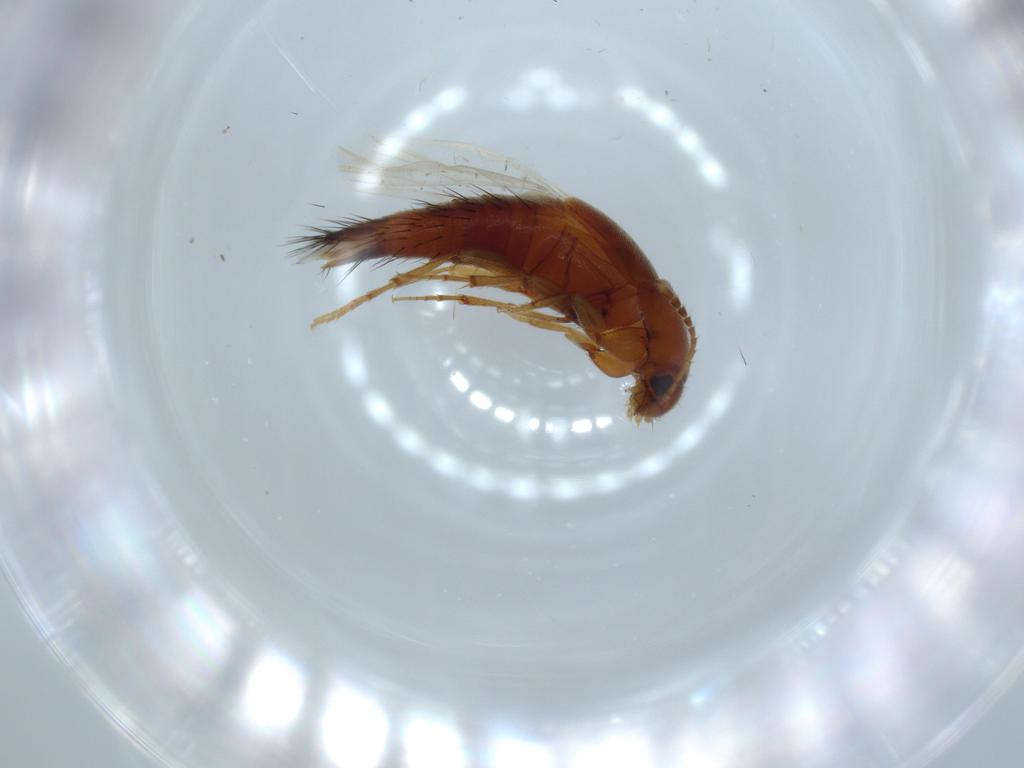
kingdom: Animalia
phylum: Arthropoda
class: Insecta
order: Coleoptera
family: Staphylinidae
